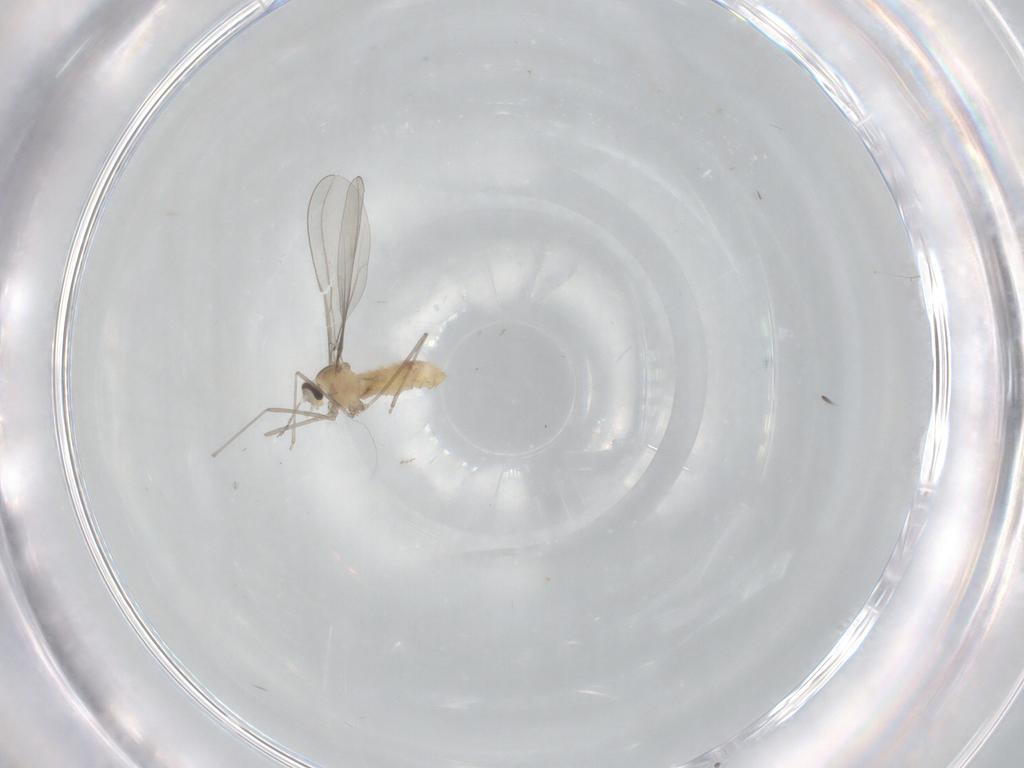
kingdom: Animalia
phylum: Arthropoda
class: Insecta
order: Diptera
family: Cecidomyiidae
